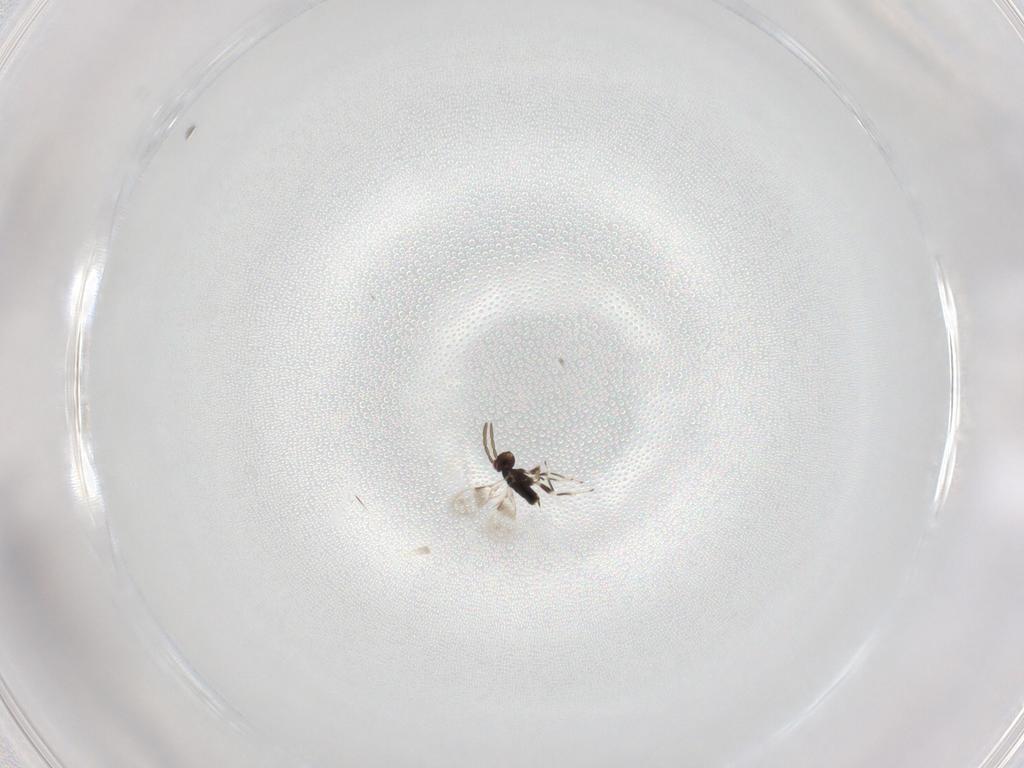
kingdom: Animalia
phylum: Arthropoda
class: Insecta
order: Hymenoptera
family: Azotidae
